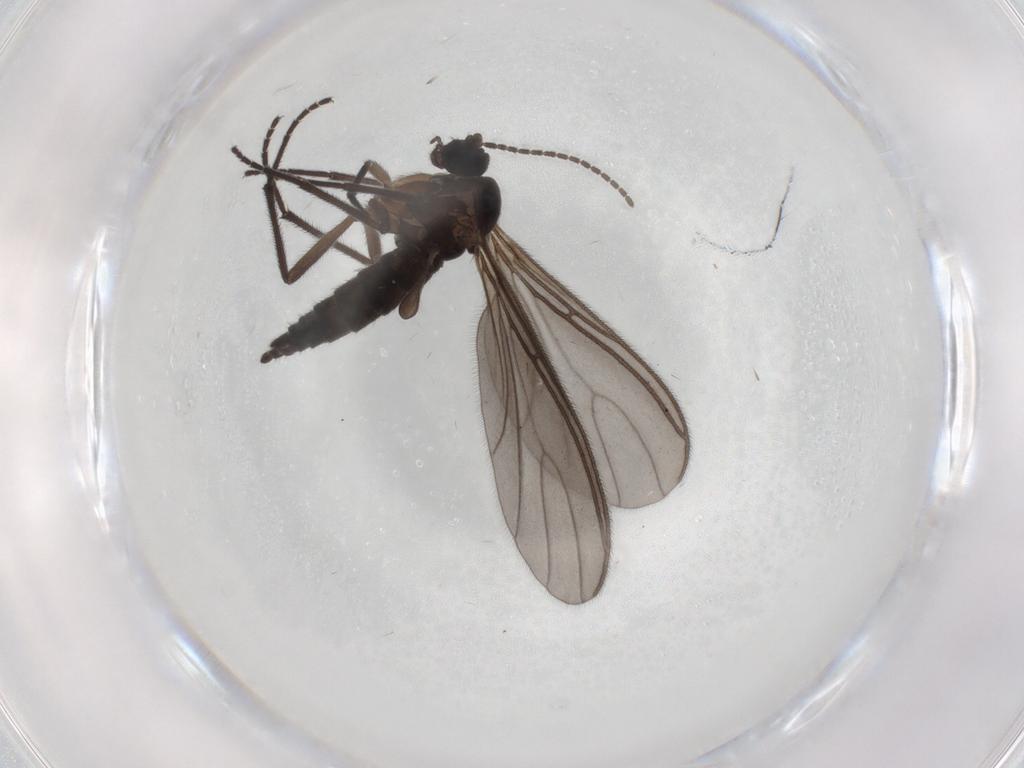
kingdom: Animalia
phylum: Arthropoda
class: Insecta
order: Diptera
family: Sciaridae
